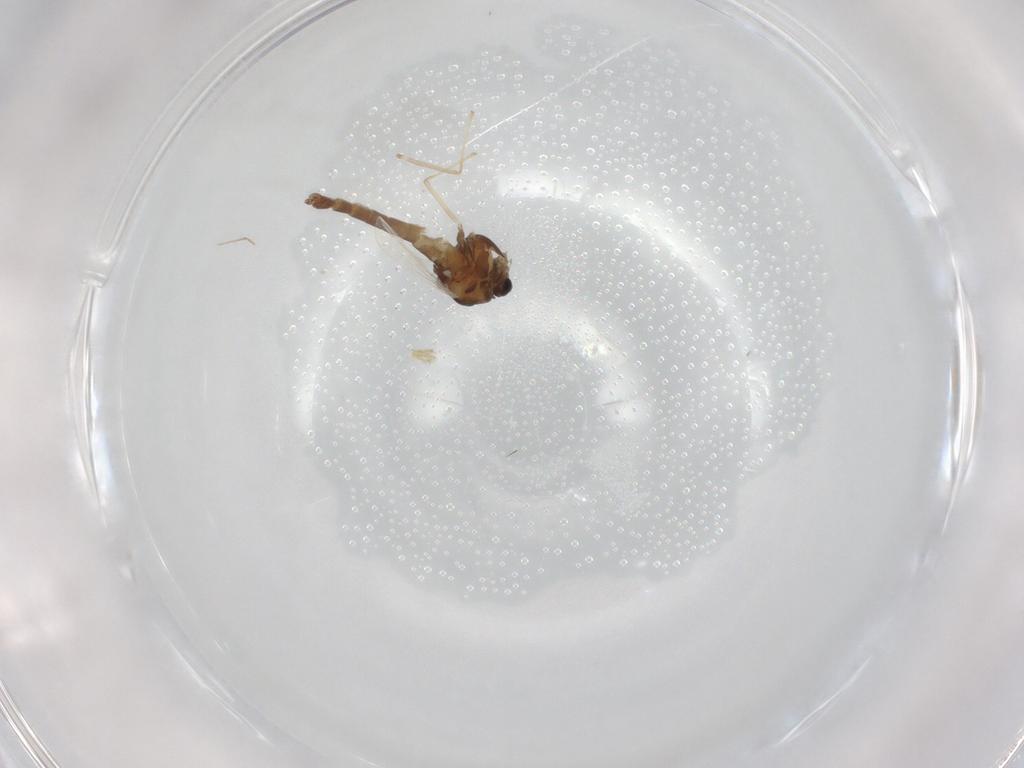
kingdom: Animalia
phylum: Arthropoda
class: Insecta
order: Diptera
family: Chironomidae
